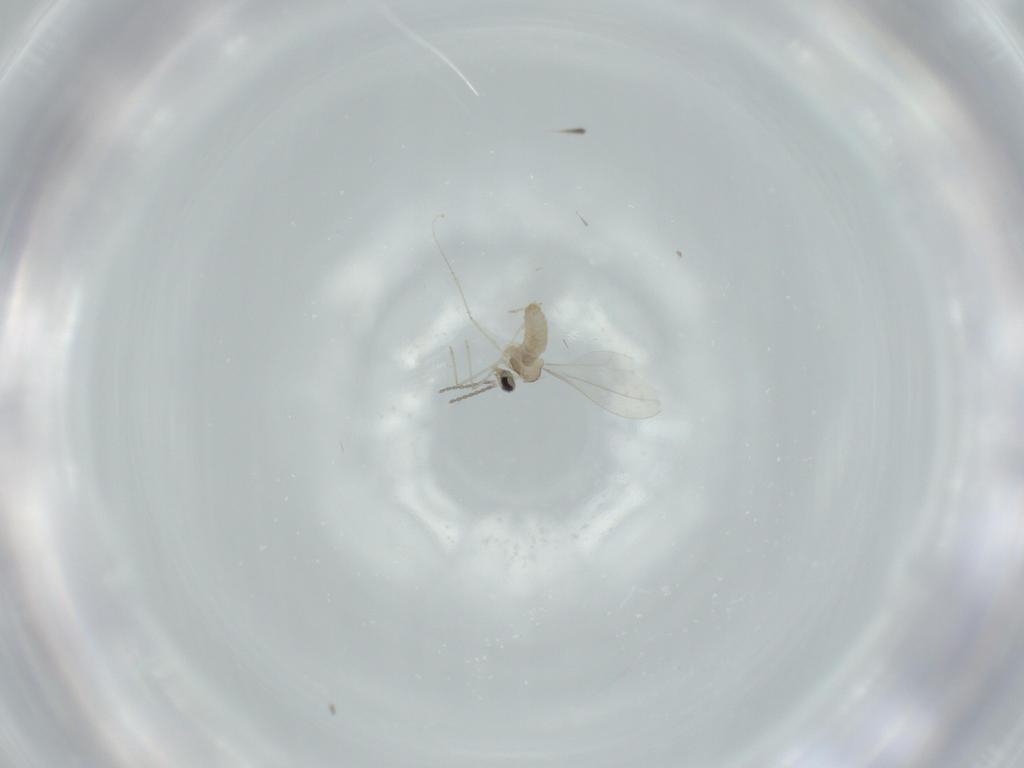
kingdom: Animalia
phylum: Arthropoda
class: Insecta
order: Diptera
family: Cecidomyiidae
